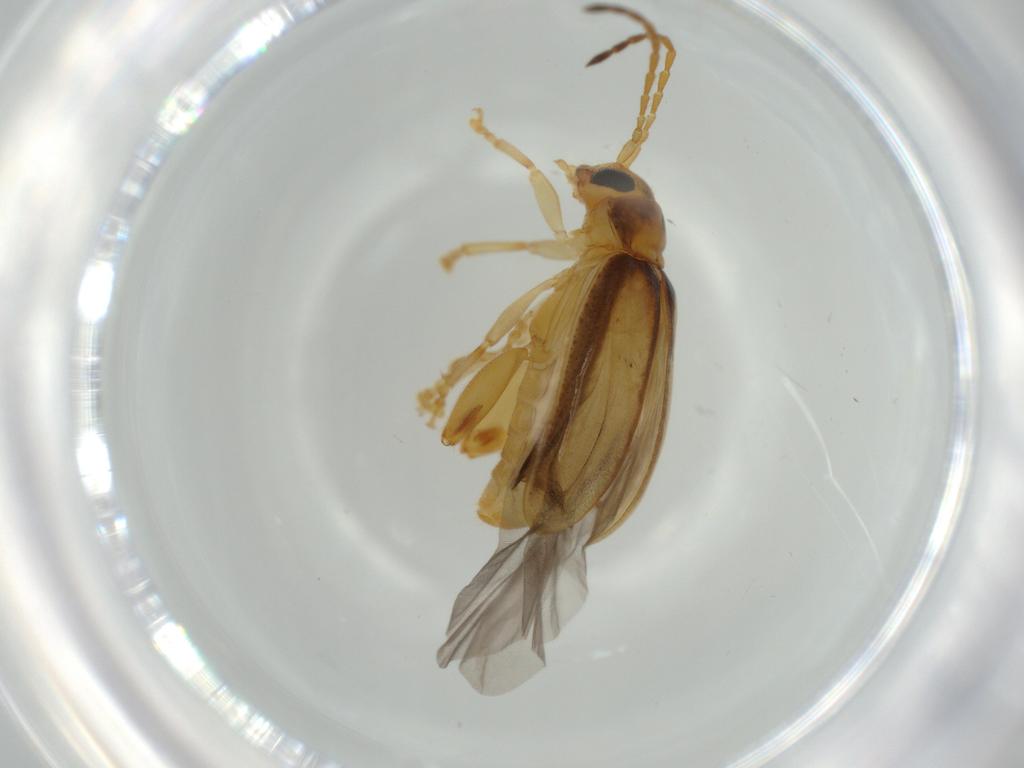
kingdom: Animalia
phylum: Arthropoda
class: Insecta
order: Coleoptera
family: Chrysomelidae
